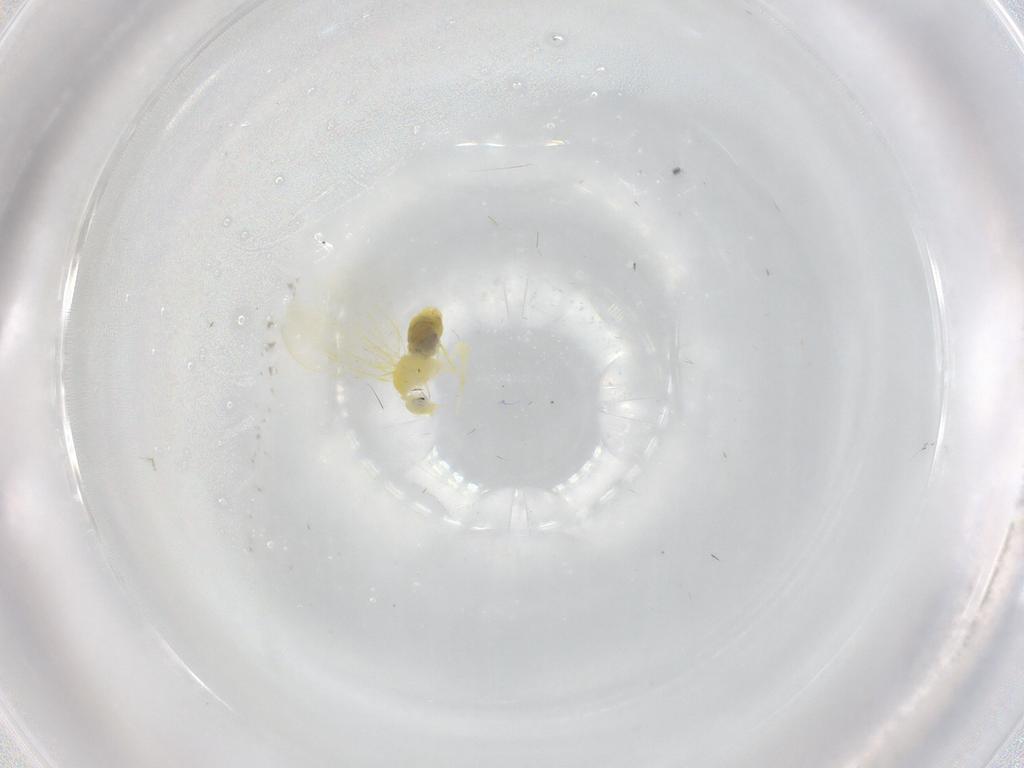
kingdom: Animalia
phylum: Arthropoda
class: Insecta
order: Hemiptera
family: Aleyrodidae
